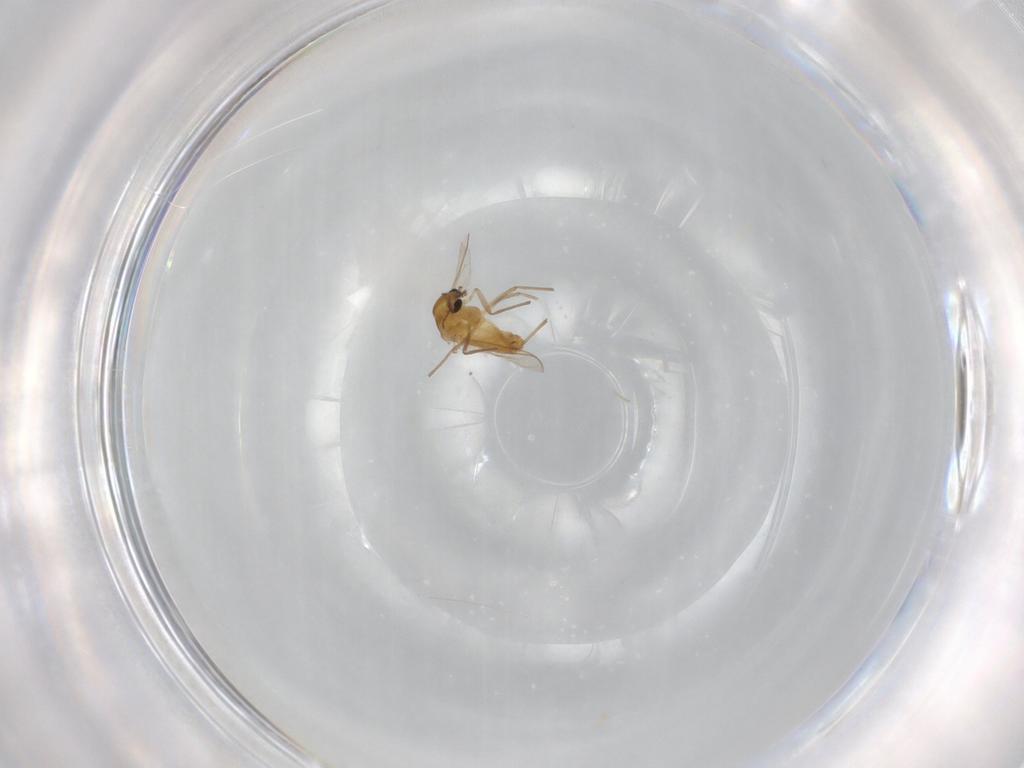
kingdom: Animalia
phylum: Arthropoda
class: Insecta
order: Diptera
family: Chironomidae
